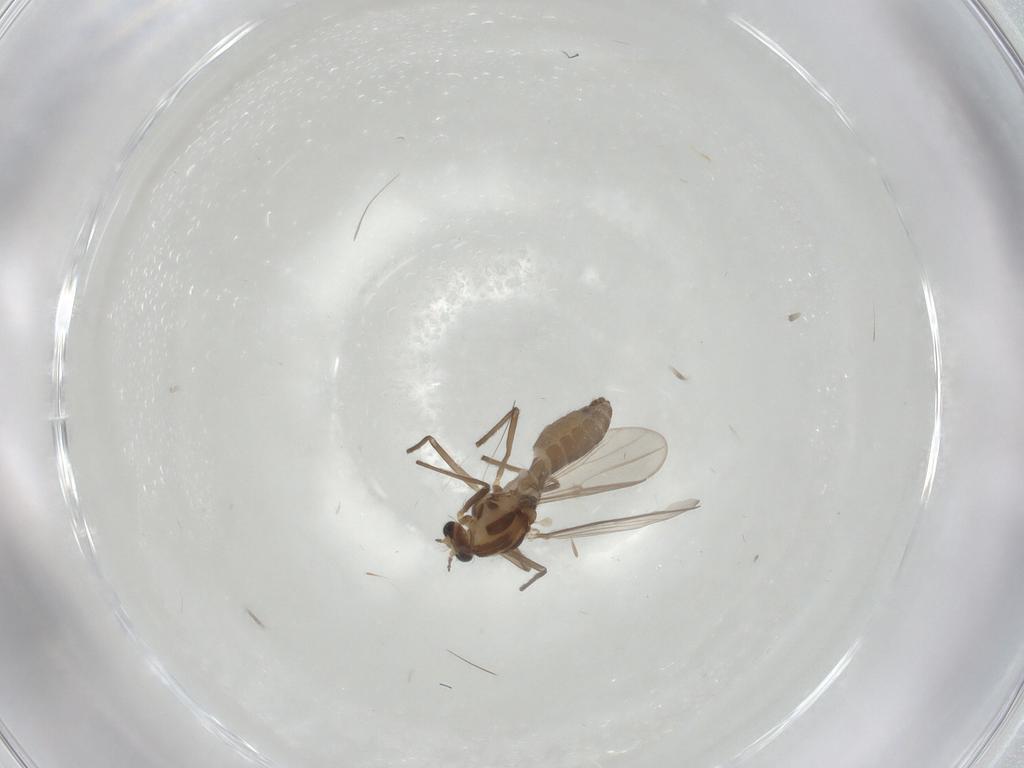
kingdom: Animalia
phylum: Arthropoda
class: Insecta
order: Diptera
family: Chironomidae
